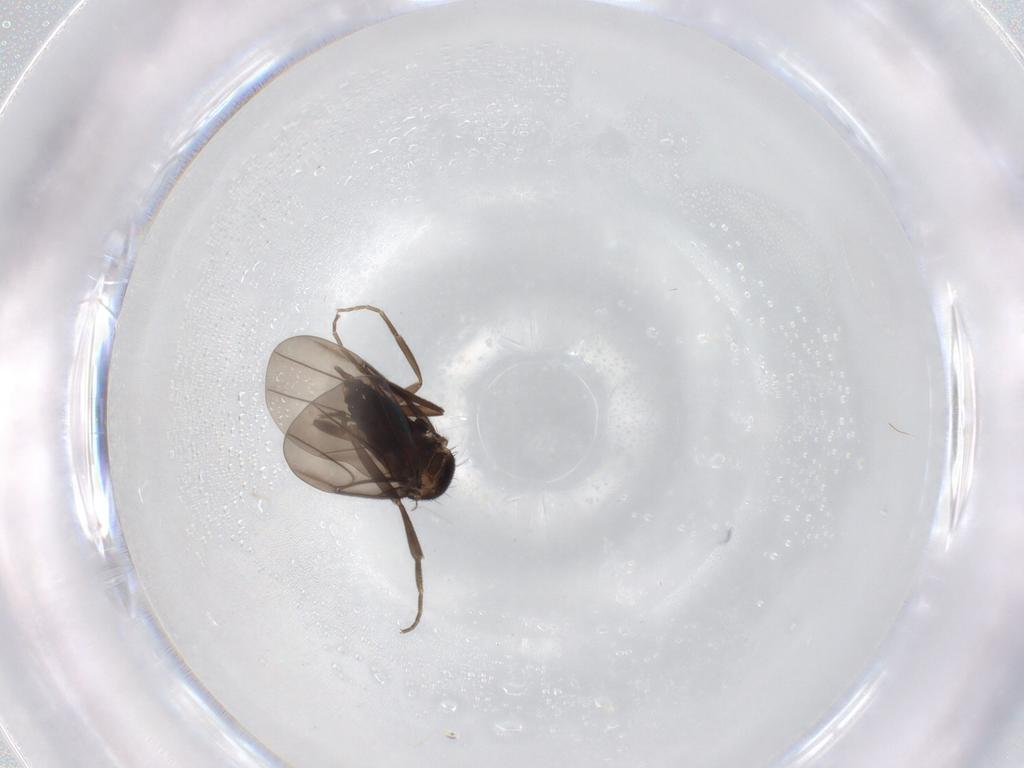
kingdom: Animalia
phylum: Arthropoda
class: Insecta
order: Diptera
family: Phoridae
